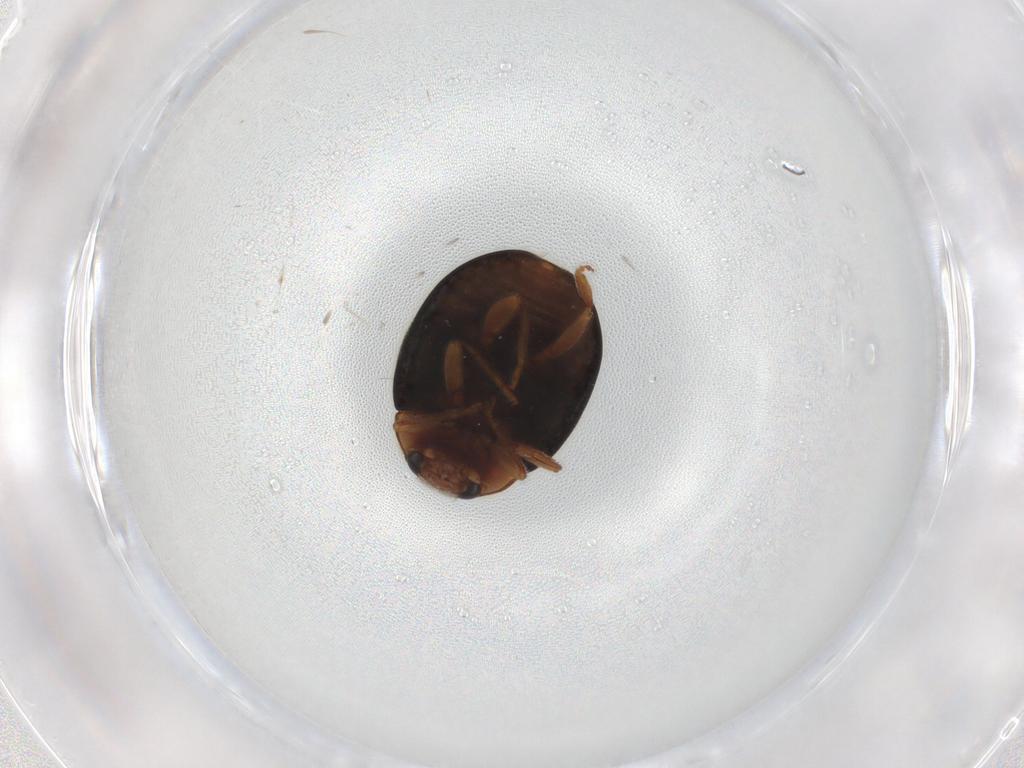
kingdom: Animalia
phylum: Arthropoda
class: Insecta
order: Coleoptera
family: Coccinellidae
